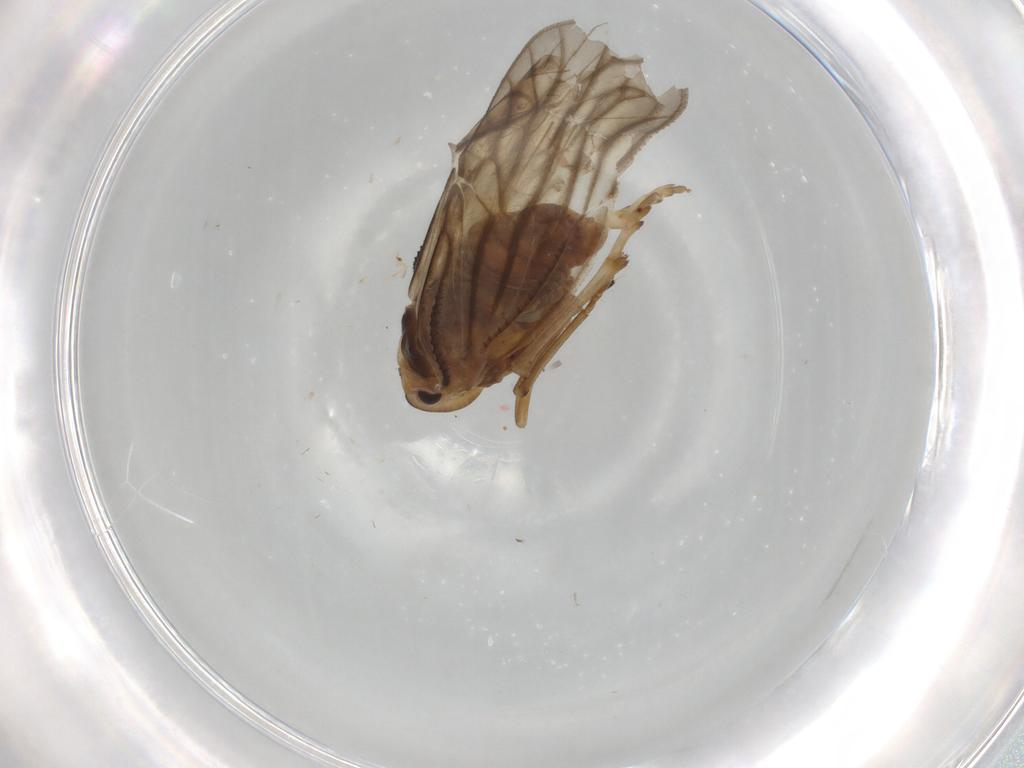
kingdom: Animalia
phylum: Arthropoda
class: Insecta
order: Hemiptera
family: Meenoplidae
